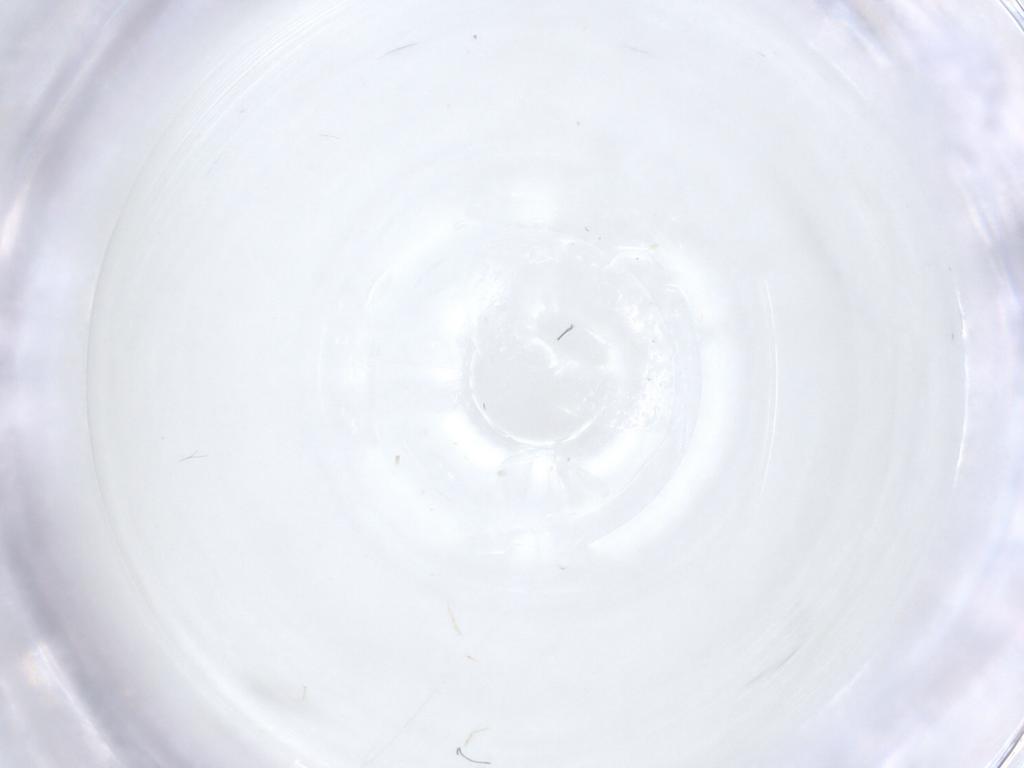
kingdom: Animalia
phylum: Arthropoda
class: Arachnida
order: Trombidiformes
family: Erythraeidae
